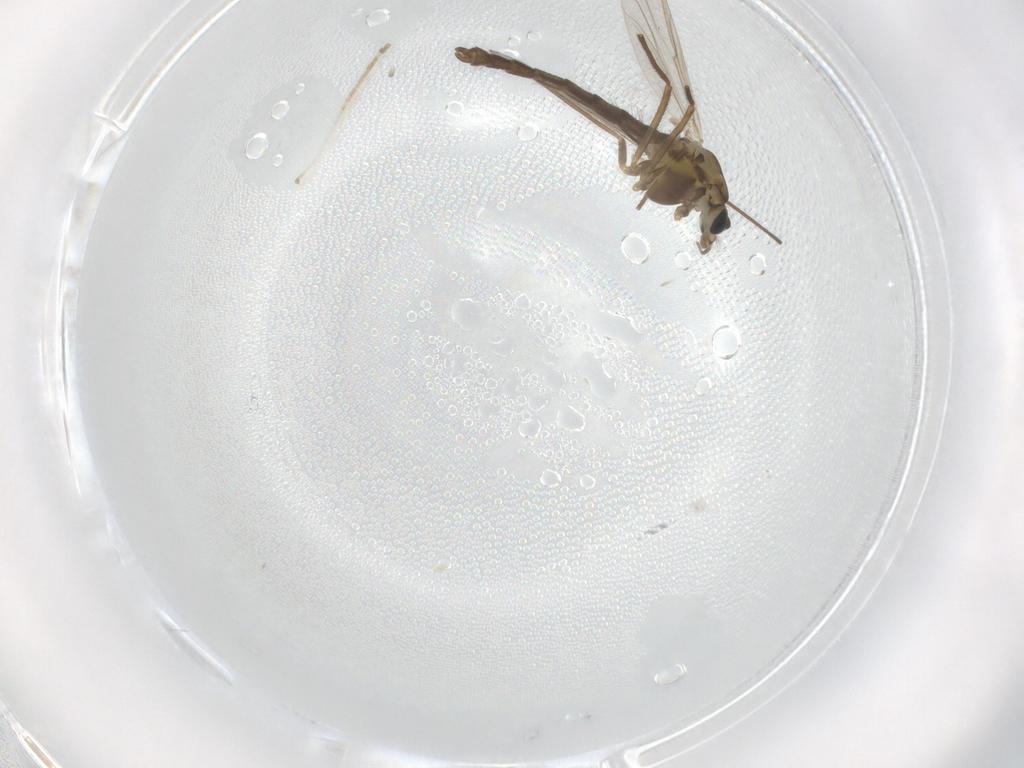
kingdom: Animalia
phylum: Arthropoda
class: Insecta
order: Diptera
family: Chironomidae
